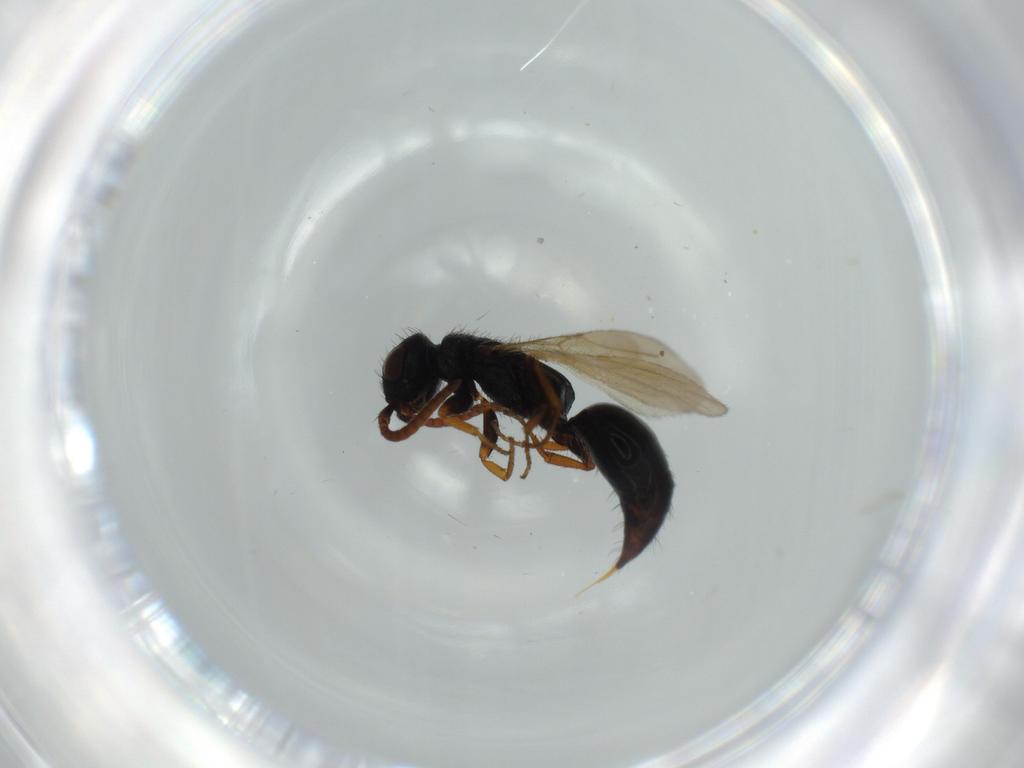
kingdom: Animalia
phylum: Arthropoda
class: Insecta
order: Hymenoptera
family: Bethylidae
